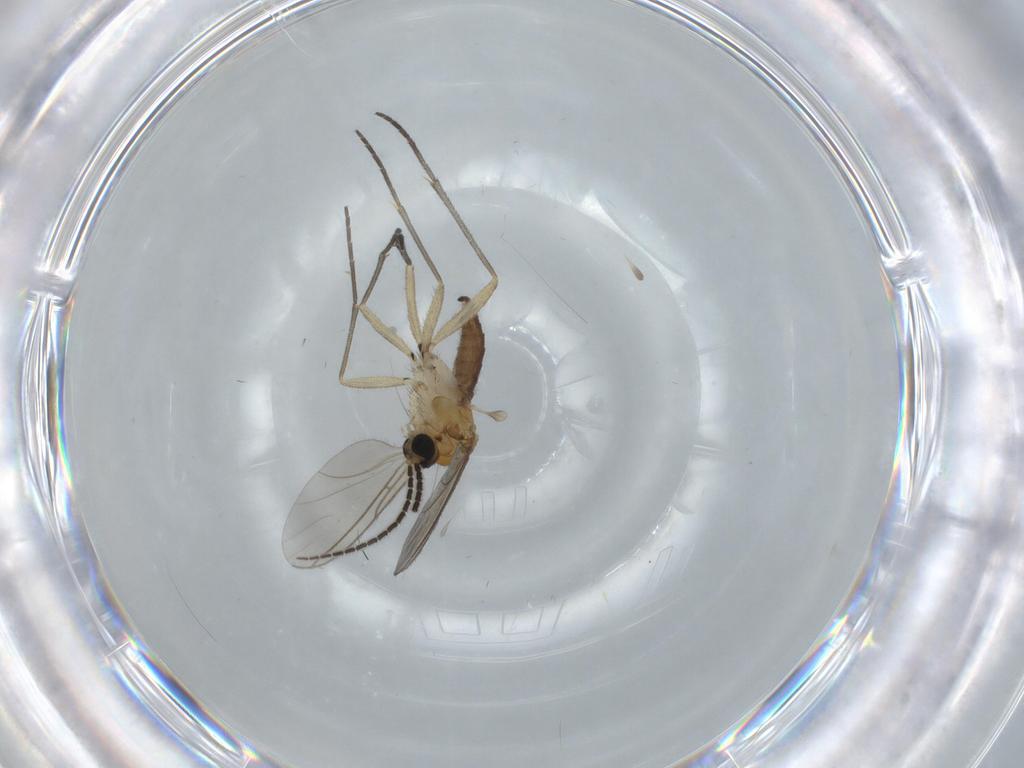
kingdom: Animalia
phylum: Arthropoda
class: Insecta
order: Diptera
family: Sciaridae
